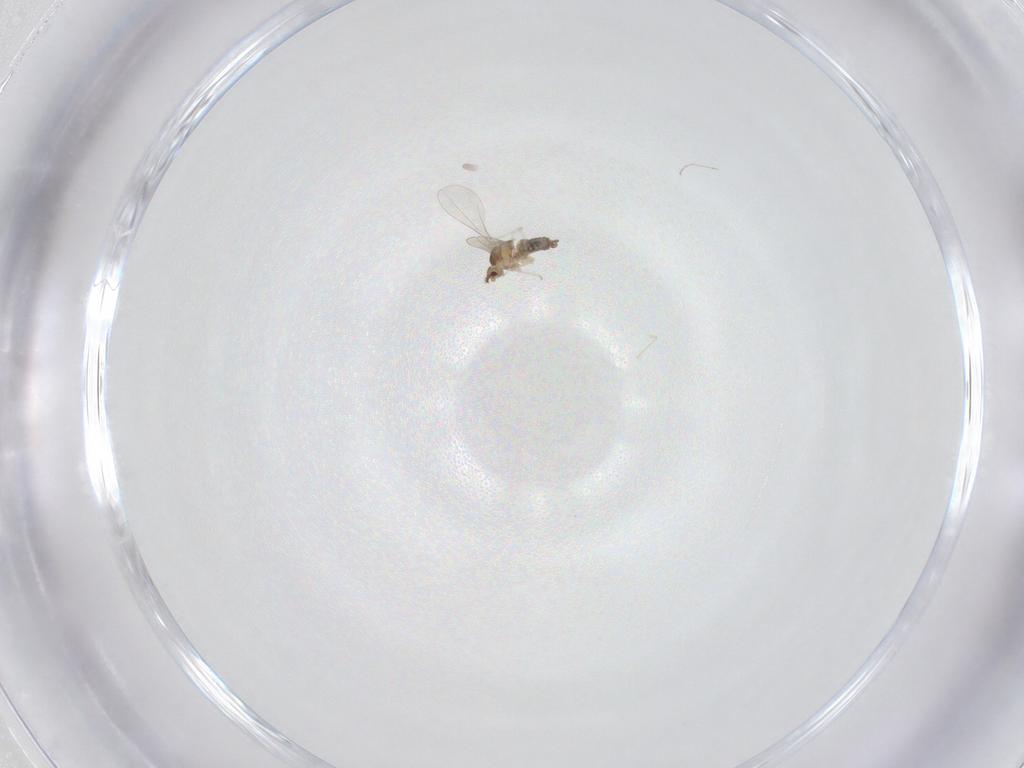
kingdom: Animalia
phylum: Arthropoda
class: Insecta
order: Diptera
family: Cecidomyiidae
